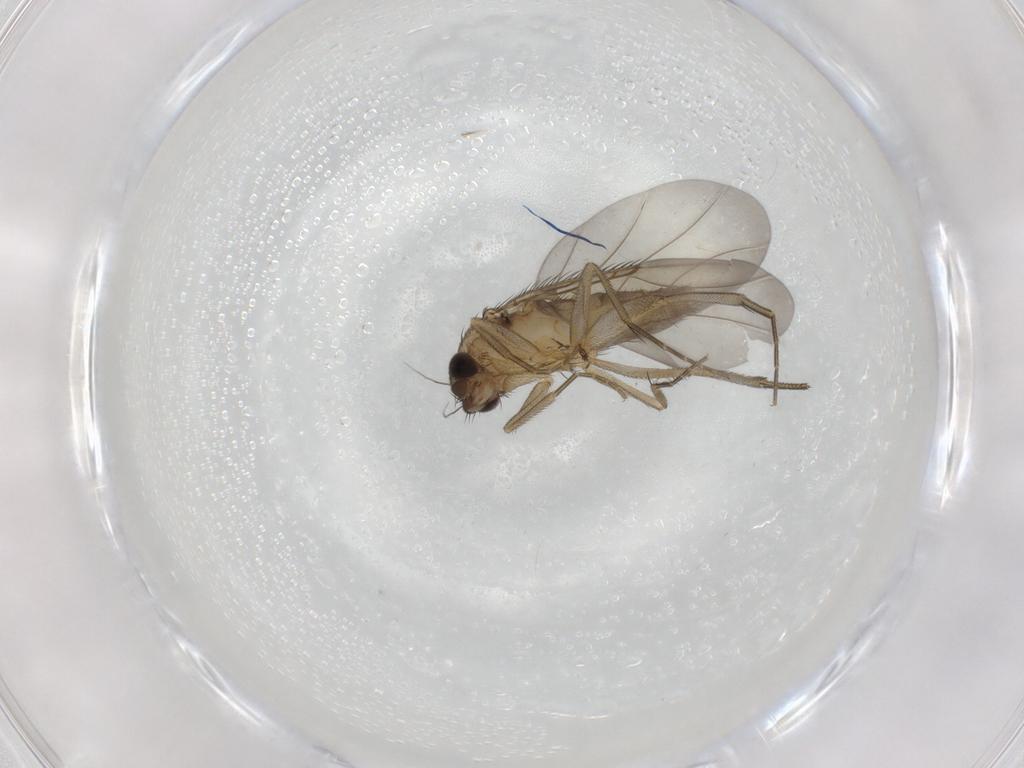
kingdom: Animalia
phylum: Arthropoda
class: Insecta
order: Diptera
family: Chironomidae
